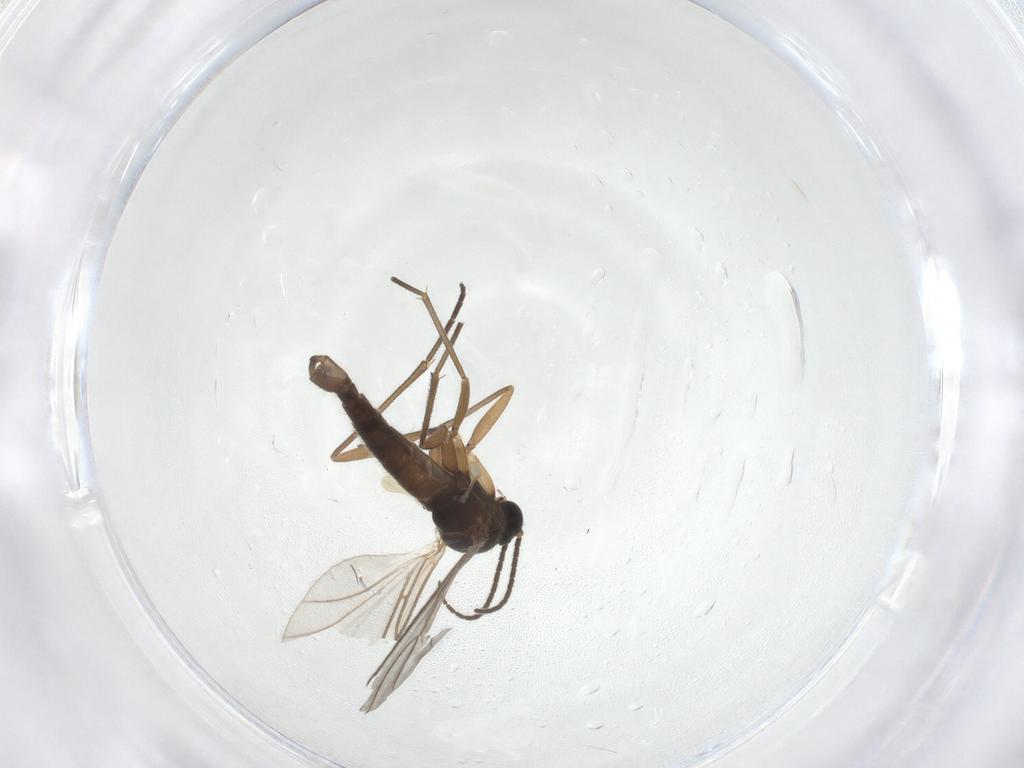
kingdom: Animalia
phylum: Arthropoda
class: Insecta
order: Diptera
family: Sciaridae
